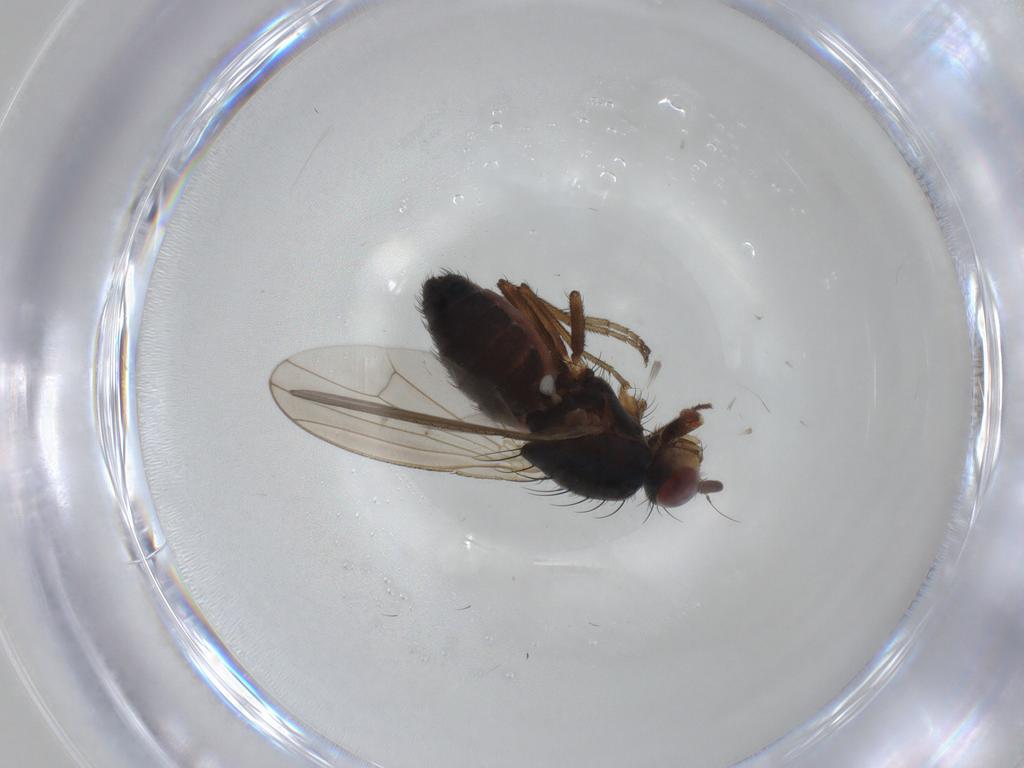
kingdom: Animalia
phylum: Arthropoda
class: Insecta
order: Diptera
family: Heleomyzidae
